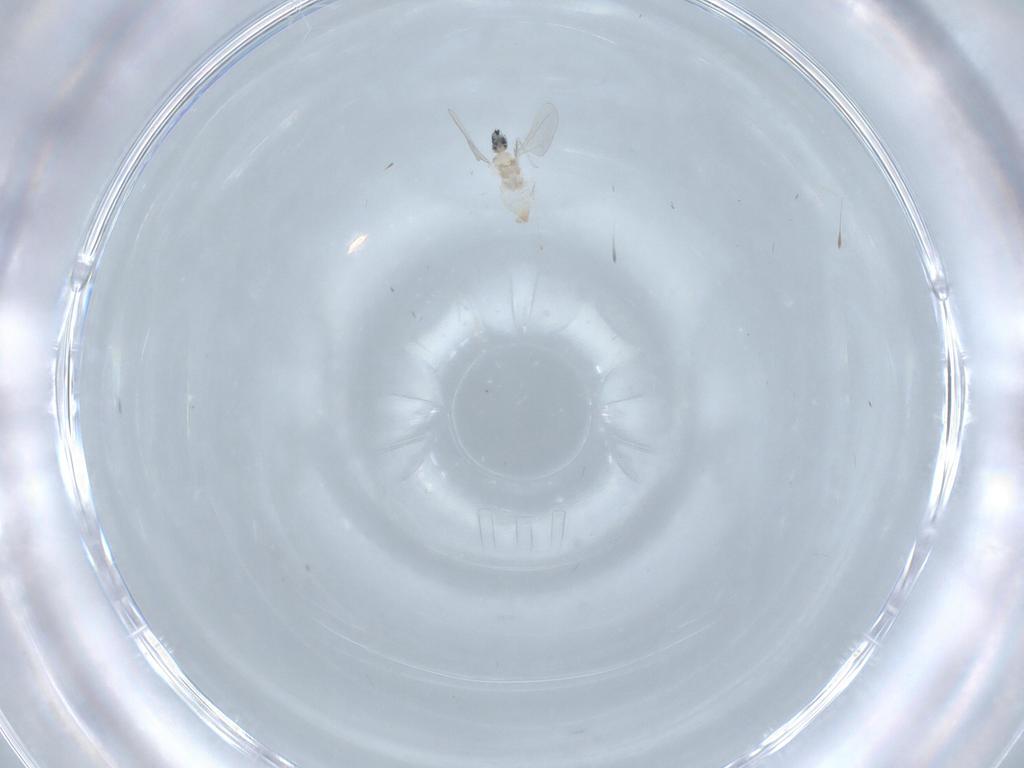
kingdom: Animalia
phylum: Arthropoda
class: Insecta
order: Diptera
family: Cecidomyiidae
